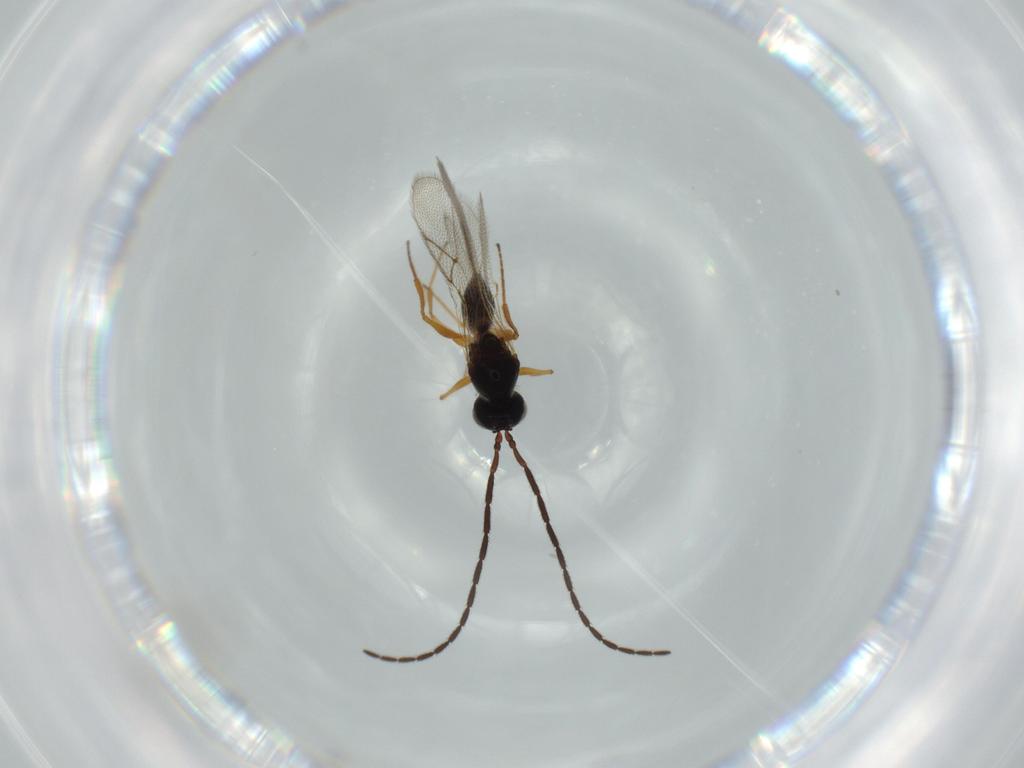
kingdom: Animalia
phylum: Arthropoda
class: Insecta
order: Hymenoptera
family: Figitidae
